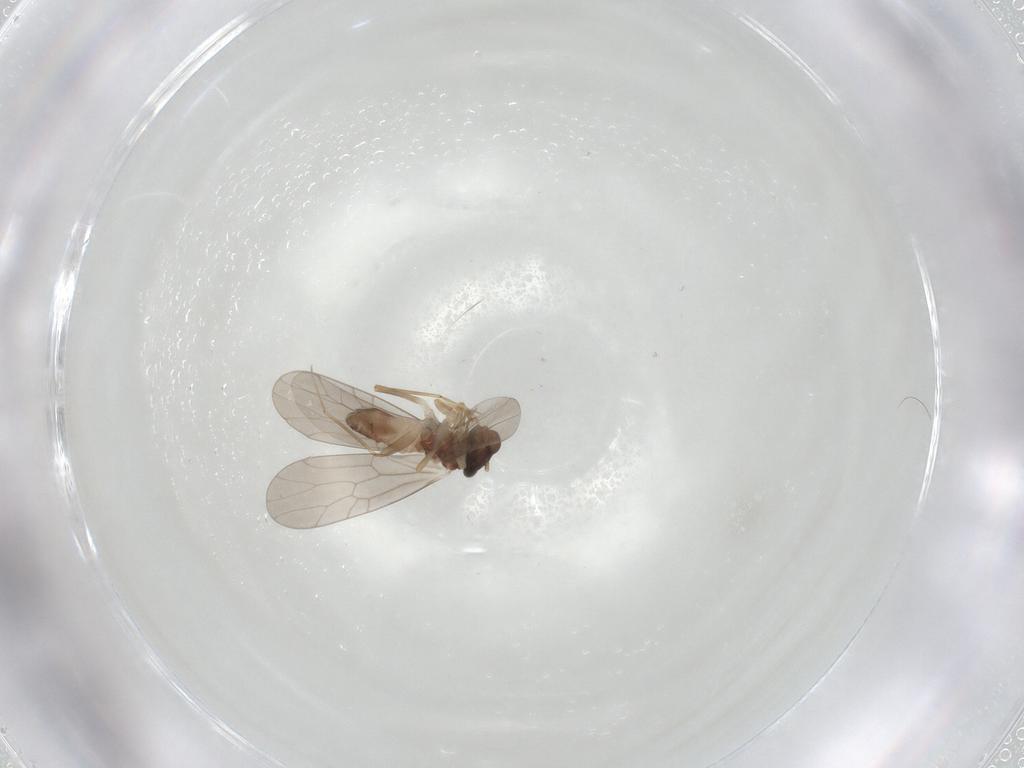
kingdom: Animalia
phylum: Arthropoda
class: Insecta
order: Psocodea
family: Lepidopsocidae
